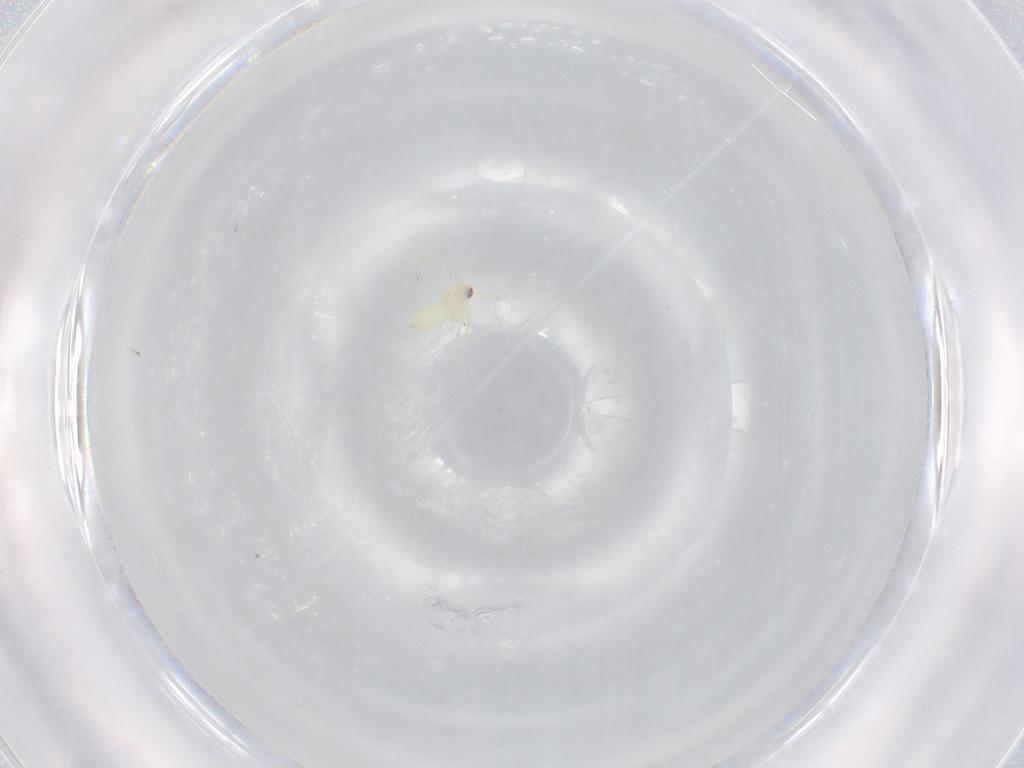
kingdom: Animalia
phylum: Arthropoda
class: Insecta
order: Hemiptera
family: Aleyrodidae
